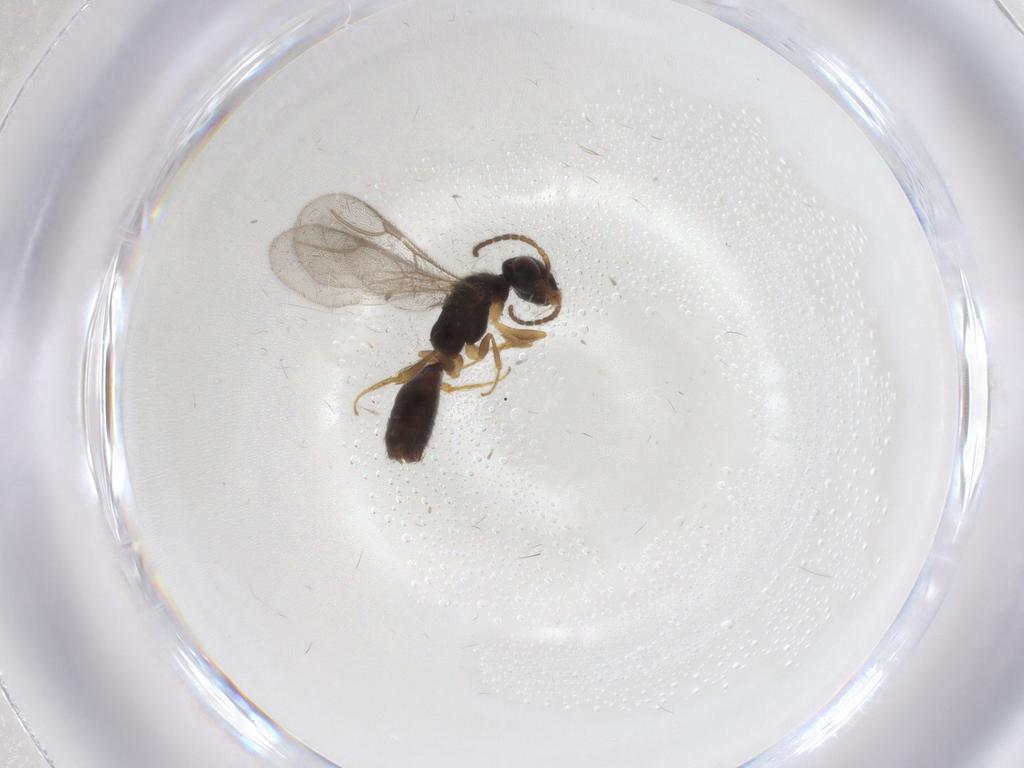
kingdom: Animalia
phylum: Arthropoda
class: Insecta
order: Hymenoptera
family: Bethylidae
